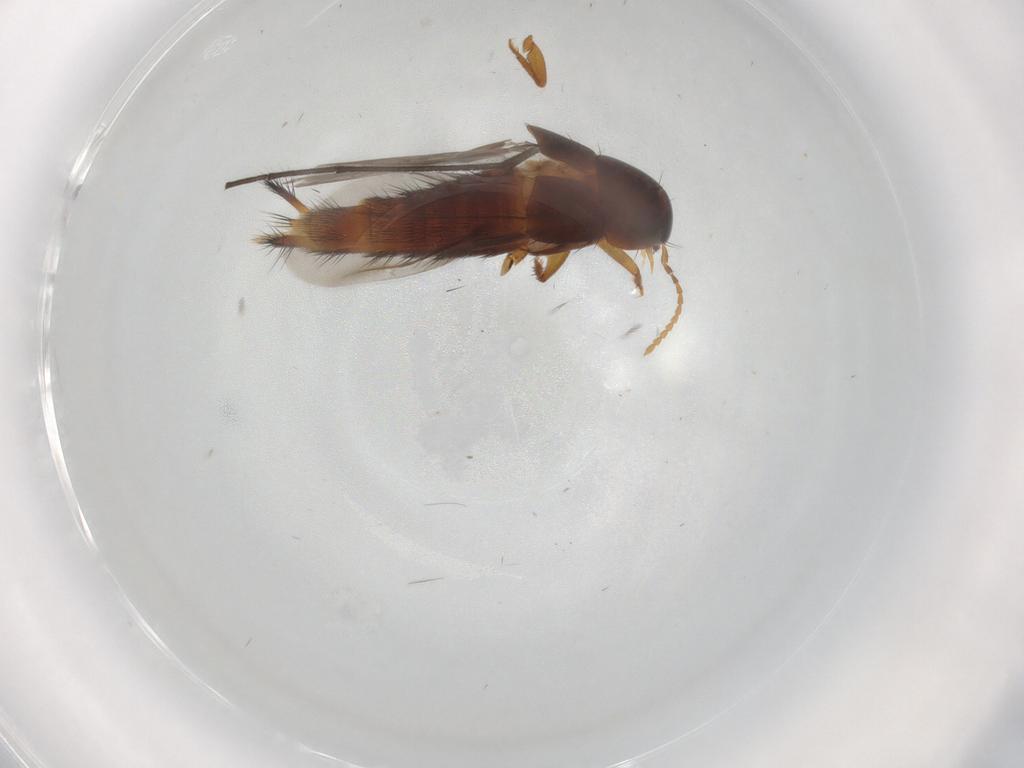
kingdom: Animalia
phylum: Arthropoda
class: Insecta
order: Coleoptera
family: Staphylinidae
